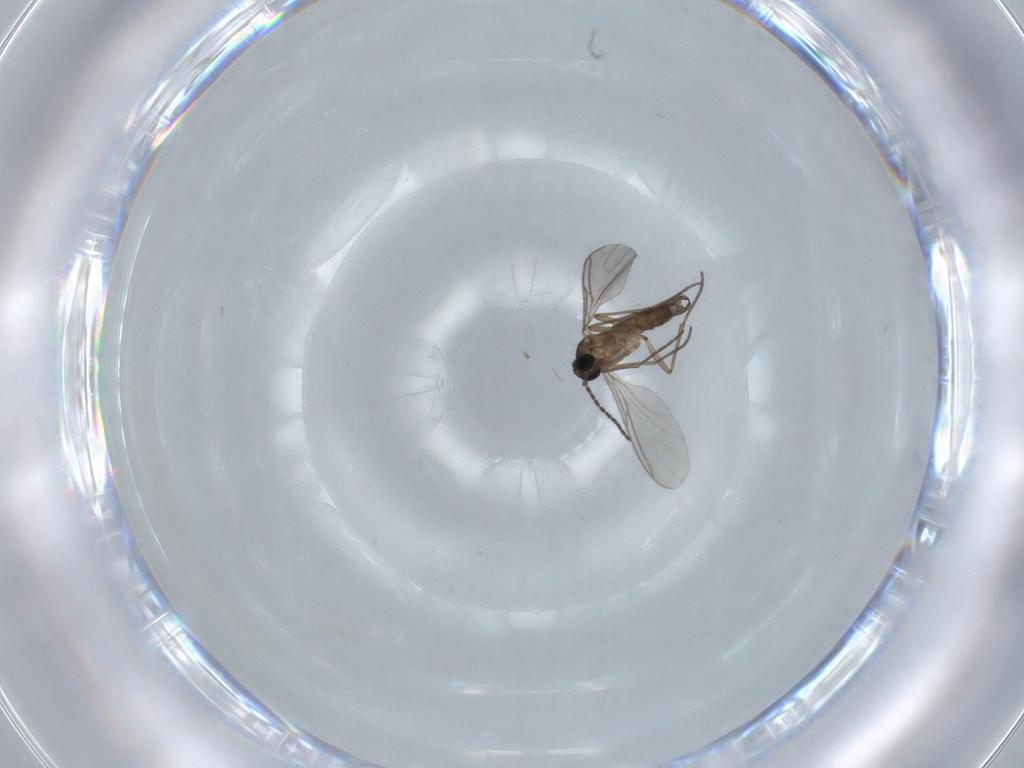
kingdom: Animalia
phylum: Arthropoda
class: Insecta
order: Diptera
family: Sciaridae
